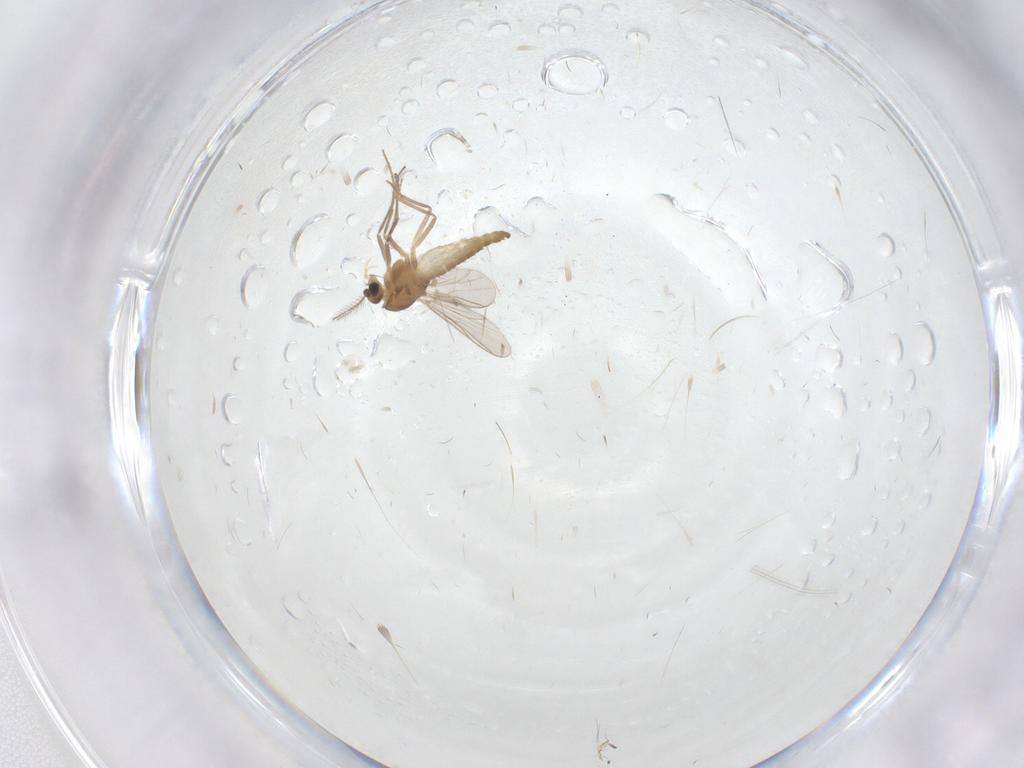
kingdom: Animalia
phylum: Arthropoda
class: Insecta
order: Diptera
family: Chironomidae
